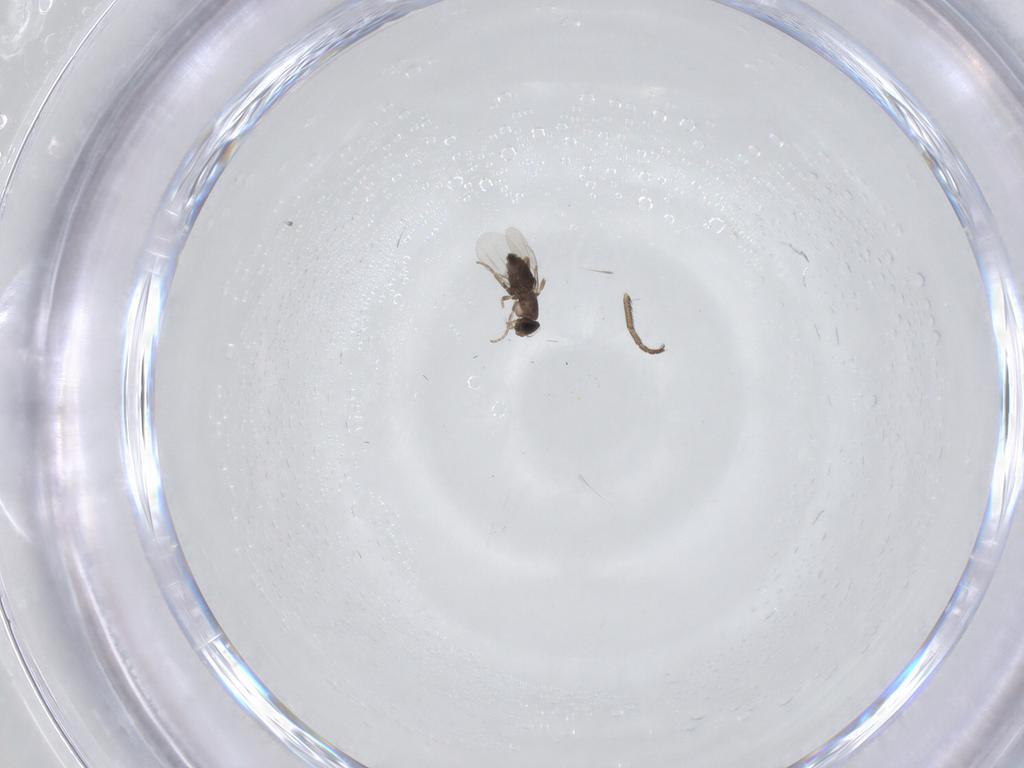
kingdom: Animalia
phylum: Arthropoda
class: Insecta
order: Diptera
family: Phoridae
